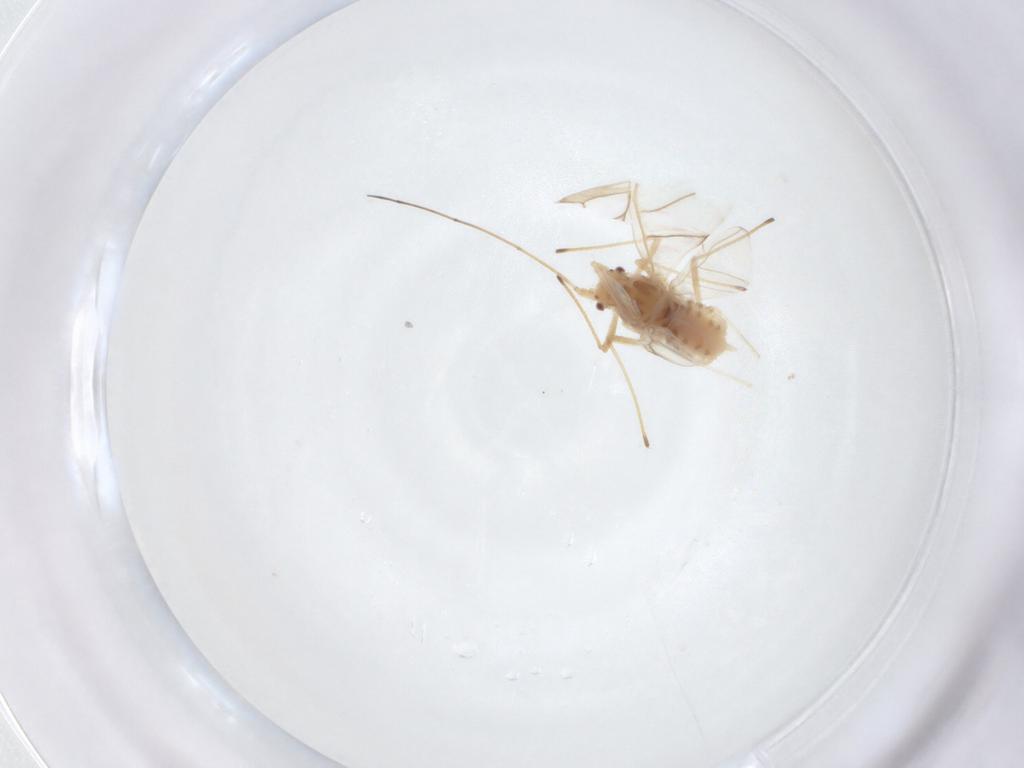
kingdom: Animalia
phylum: Arthropoda
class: Insecta
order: Hemiptera
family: Aphididae
